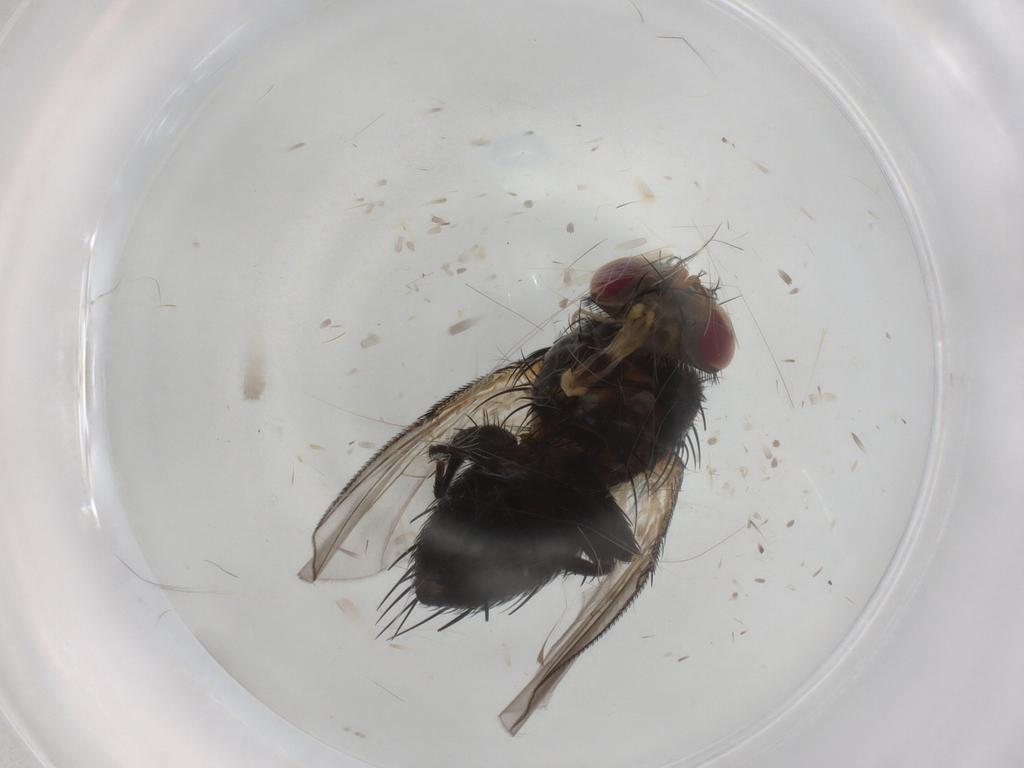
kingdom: Animalia
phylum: Arthropoda
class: Insecta
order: Diptera
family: Tachinidae
